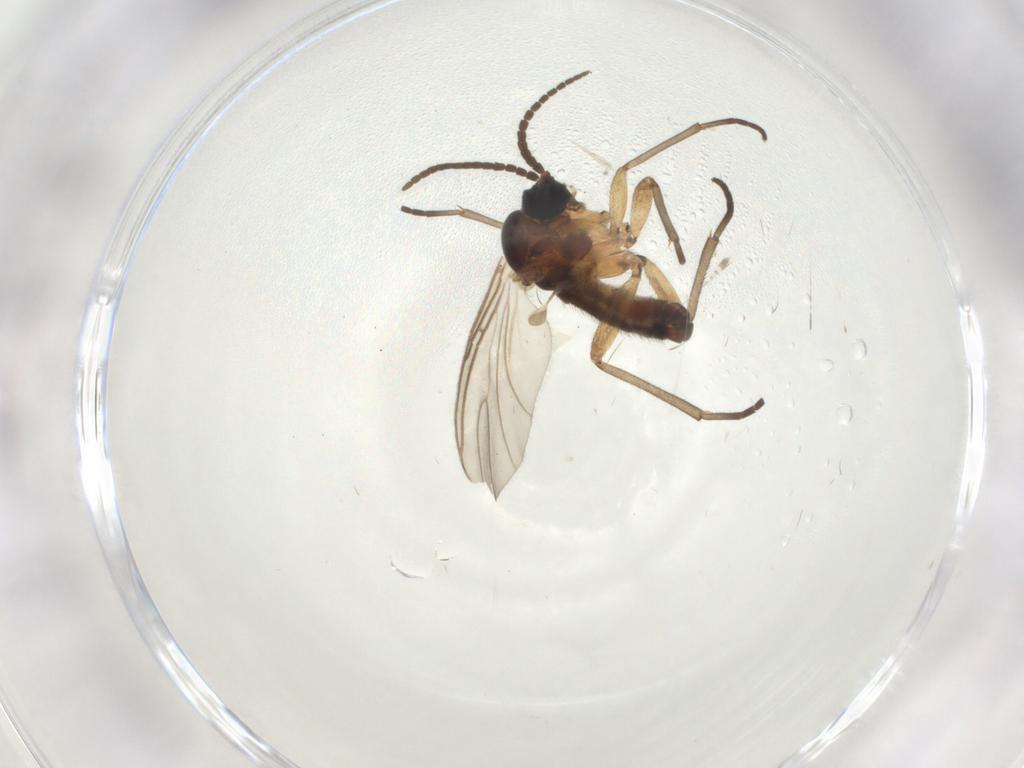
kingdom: Animalia
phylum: Arthropoda
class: Insecta
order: Diptera
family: Sciaridae
